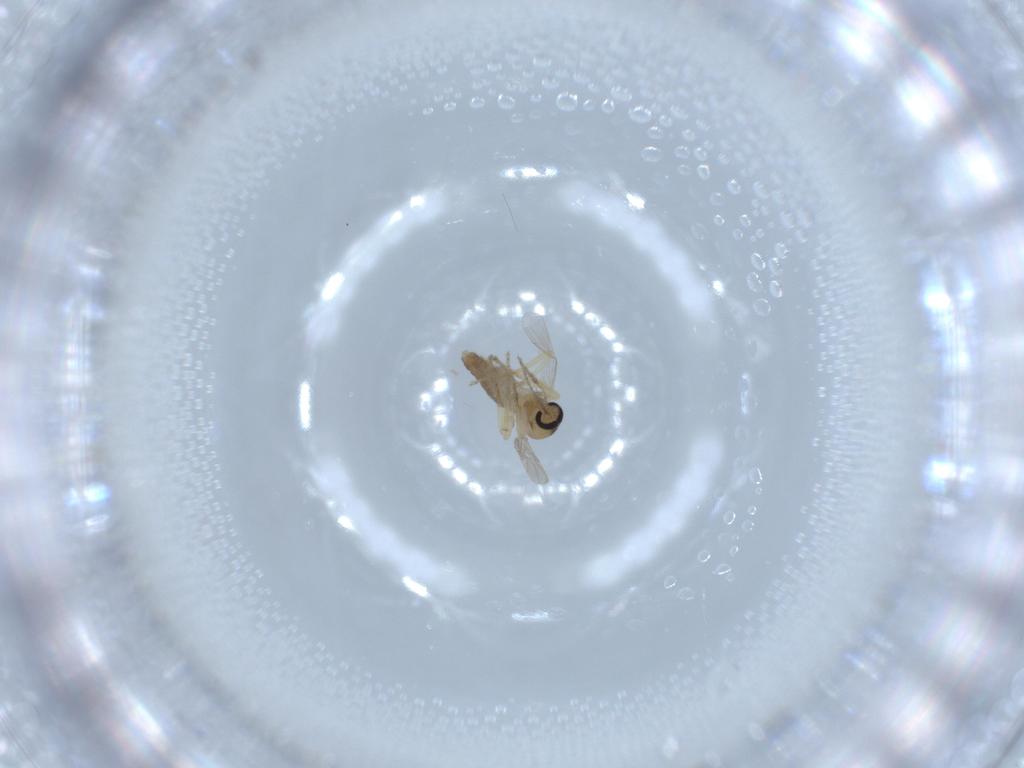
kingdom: Animalia
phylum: Arthropoda
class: Insecta
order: Diptera
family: Ceratopogonidae
